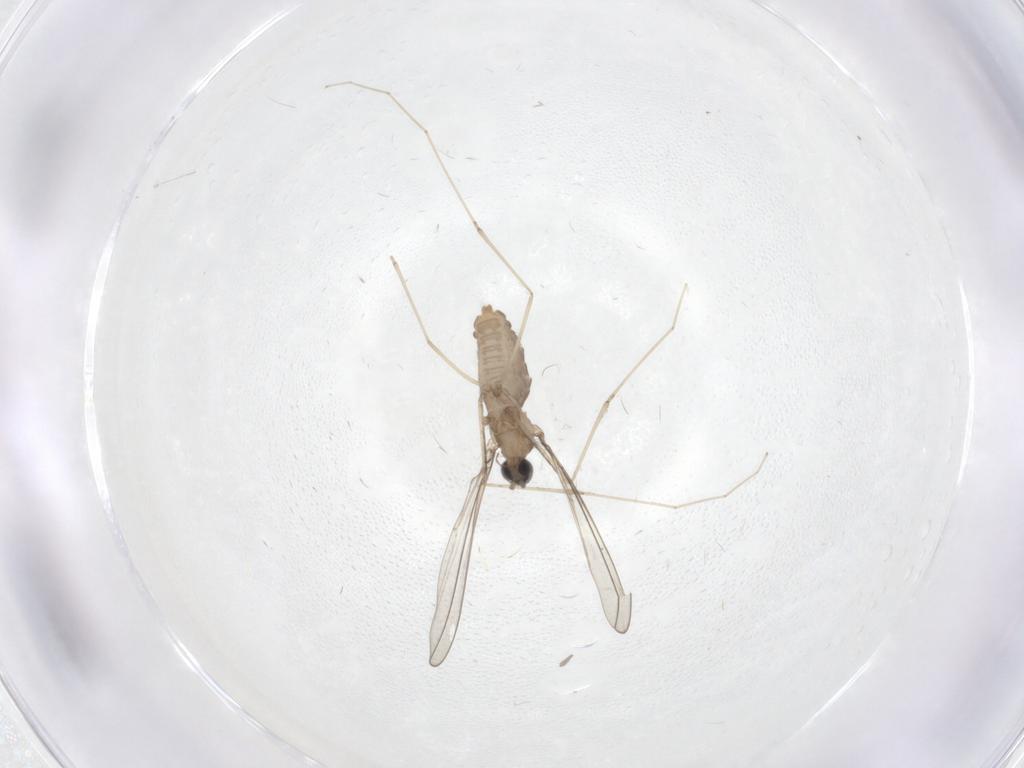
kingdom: Animalia
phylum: Arthropoda
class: Insecta
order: Diptera
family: Cecidomyiidae
